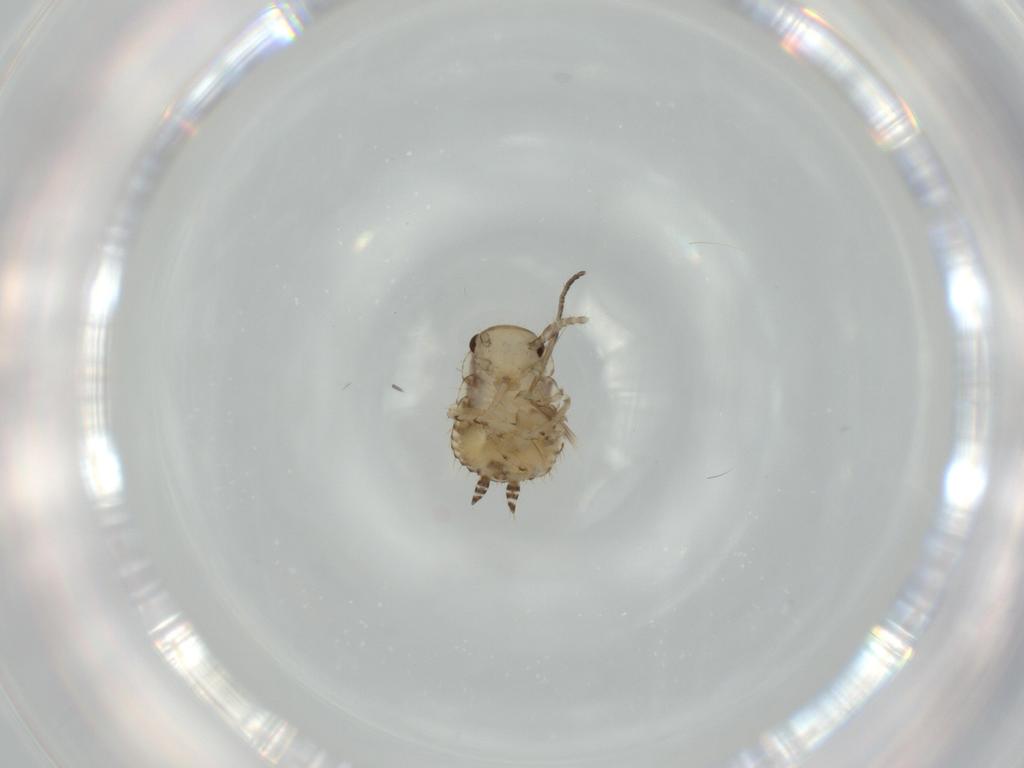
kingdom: Animalia
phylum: Arthropoda
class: Insecta
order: Blattodea
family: Ectobiidae
